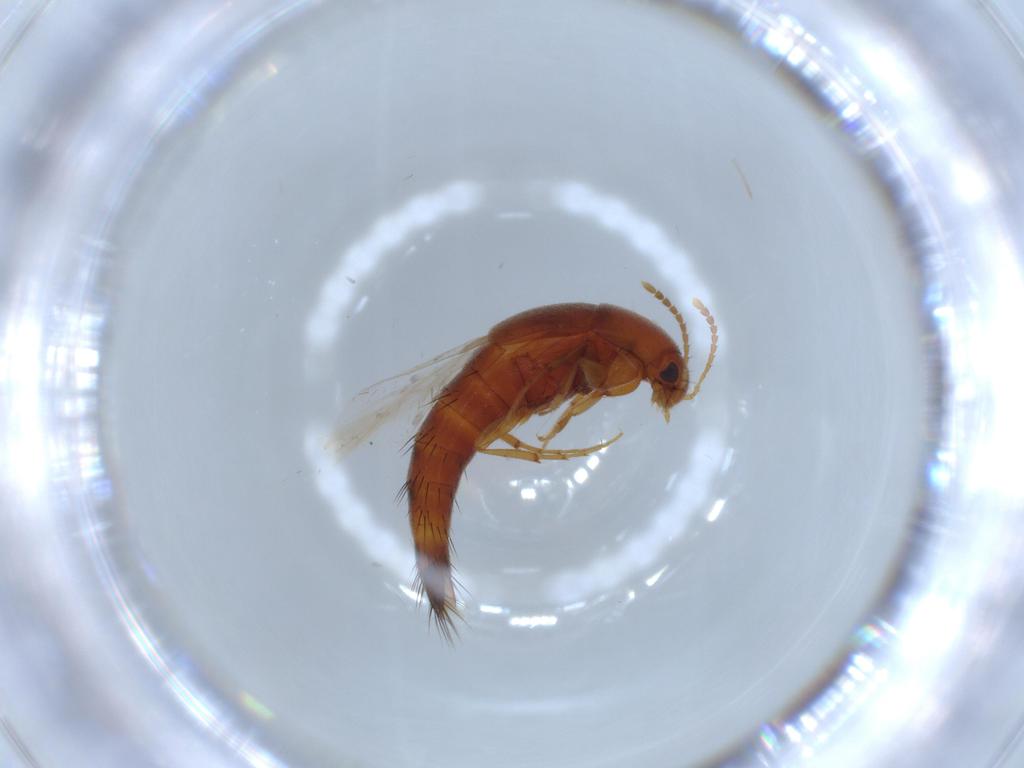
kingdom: Animalia
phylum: Arthropoda
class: Insecta
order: Coleoptera
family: Staphylinidae
